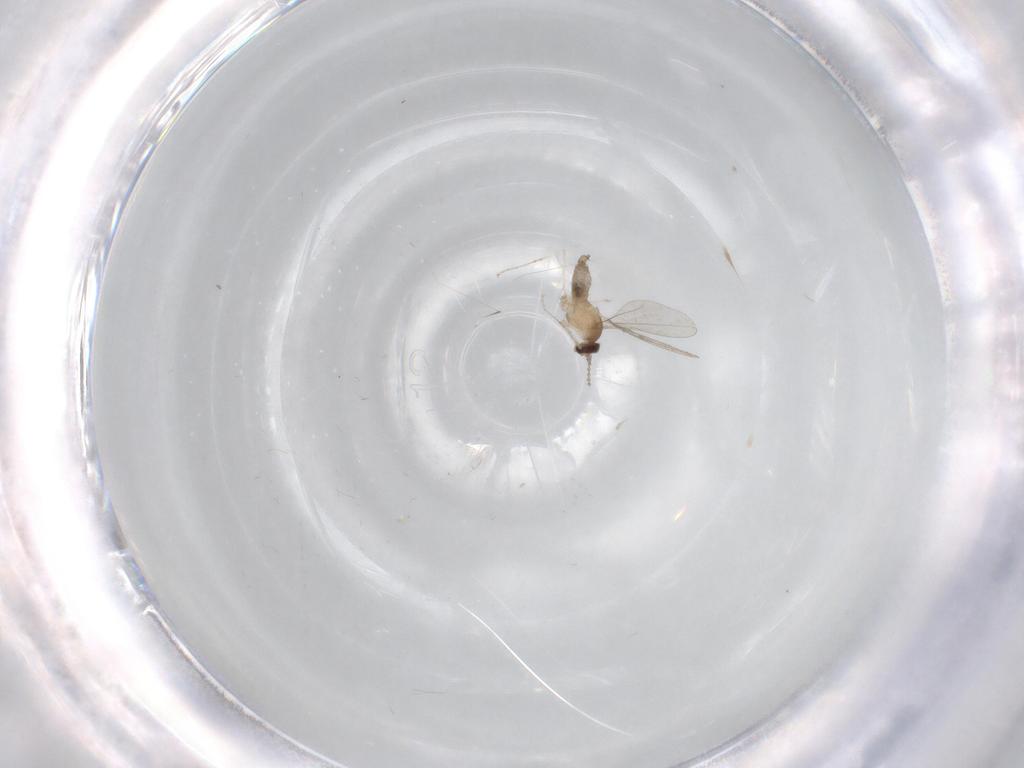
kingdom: Animalia
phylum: Arthropoda
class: Insecta
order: Diptera
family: Cecidomyiidae
